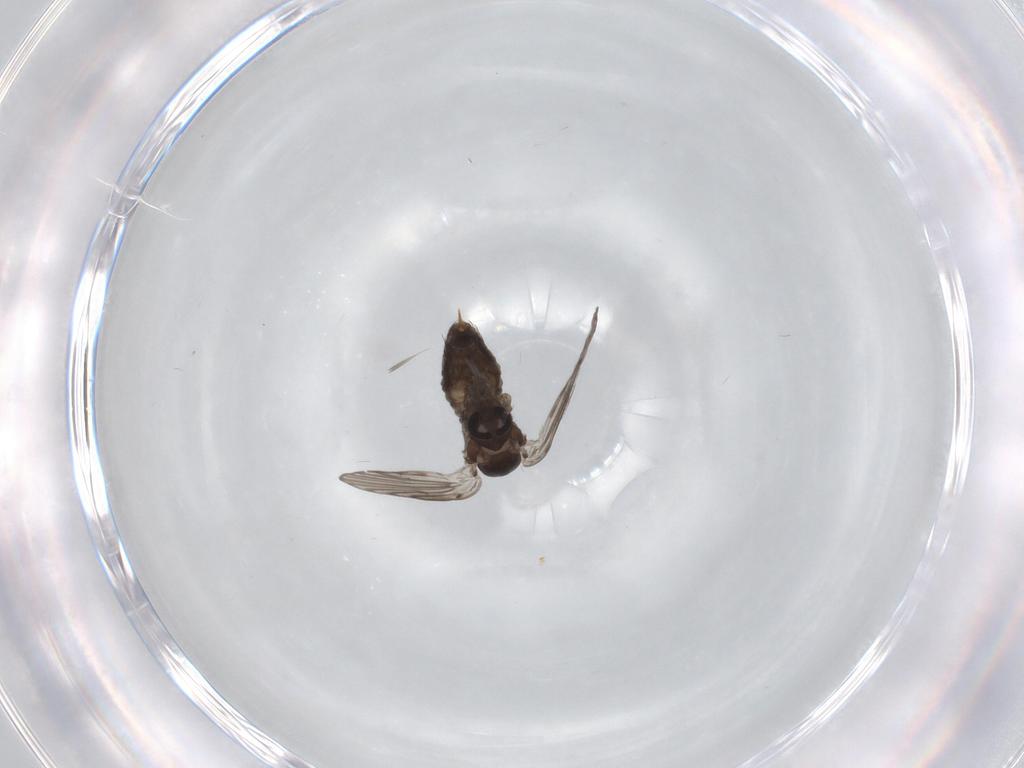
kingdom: Animalia
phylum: Arthropoda
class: Insecta
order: Diptera
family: Psychodidae
